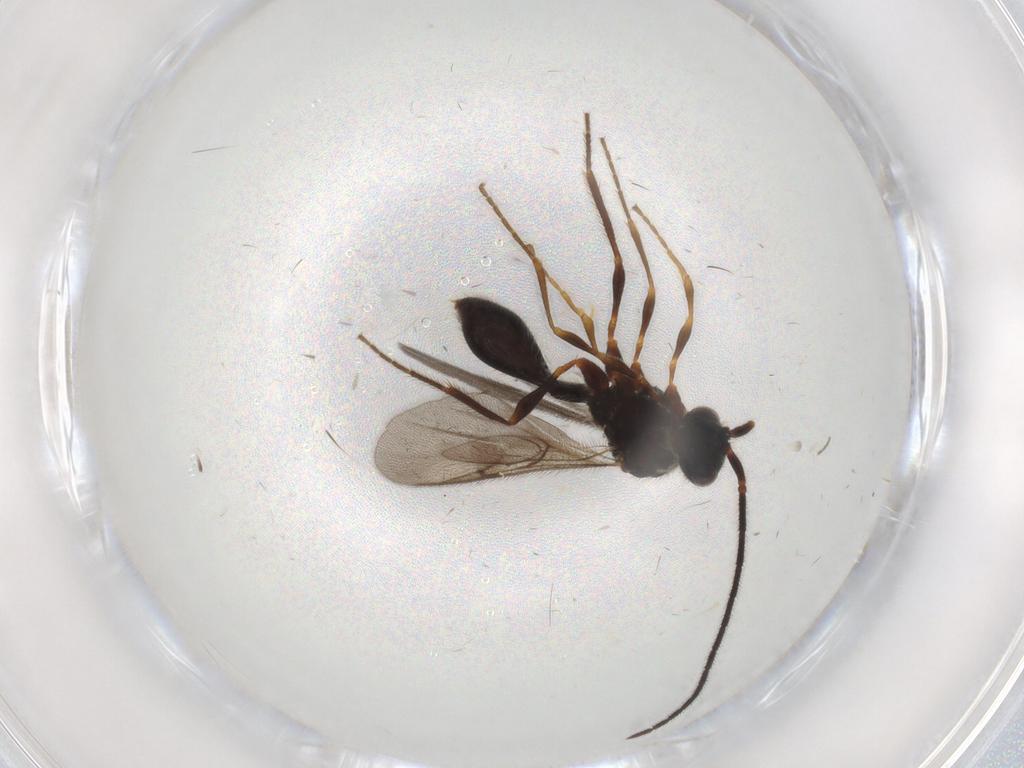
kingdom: Animalia
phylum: Arthropoda
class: Insecta
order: Hymenoptera
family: Diapriidae
